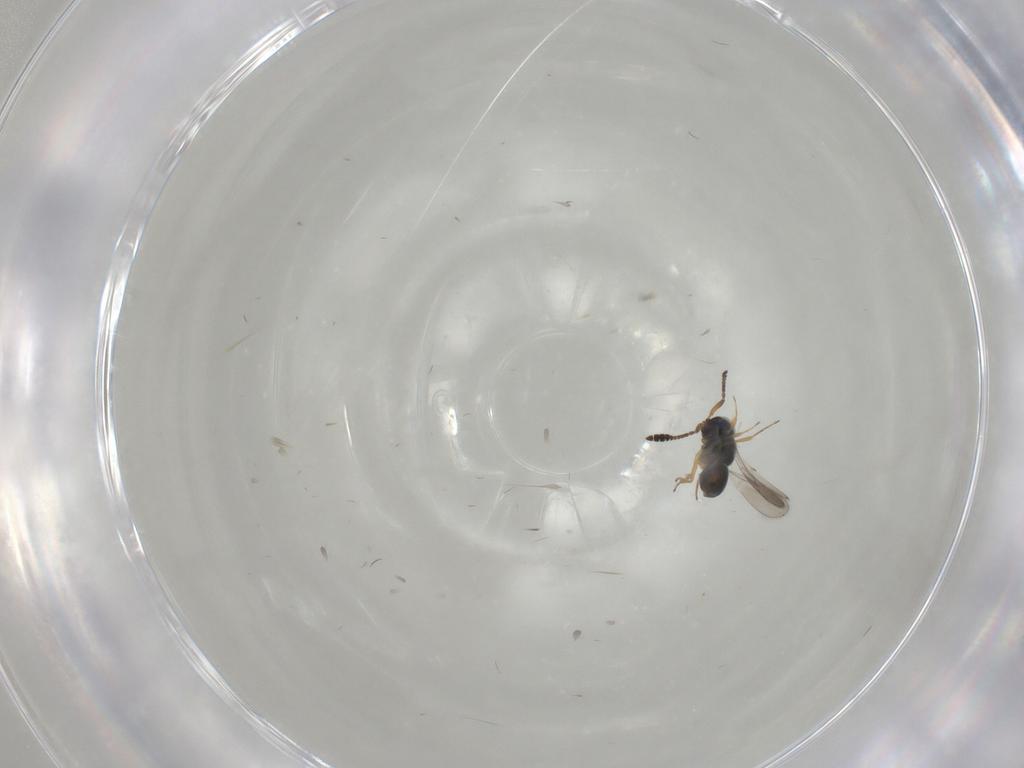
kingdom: Animalia
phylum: Arthropoda
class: Insecta
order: Hymenoptera
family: Scelionidae
